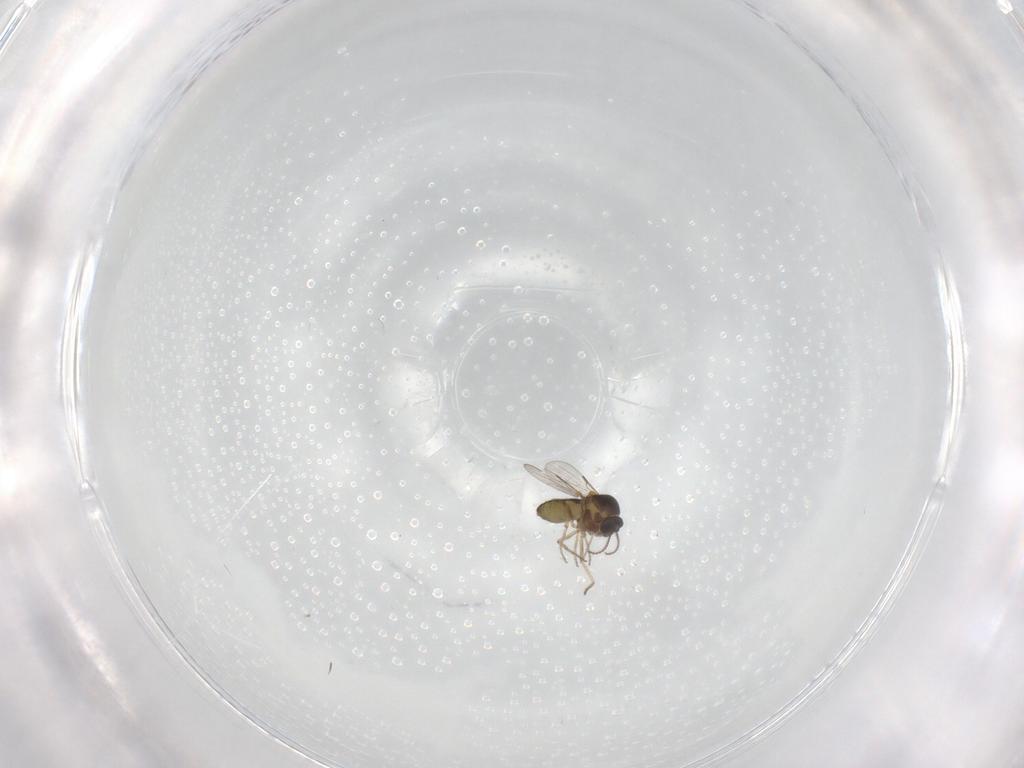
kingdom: Animalia
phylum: Arthropoda
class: Insecta
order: Diptera
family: Ceratopogonidae
